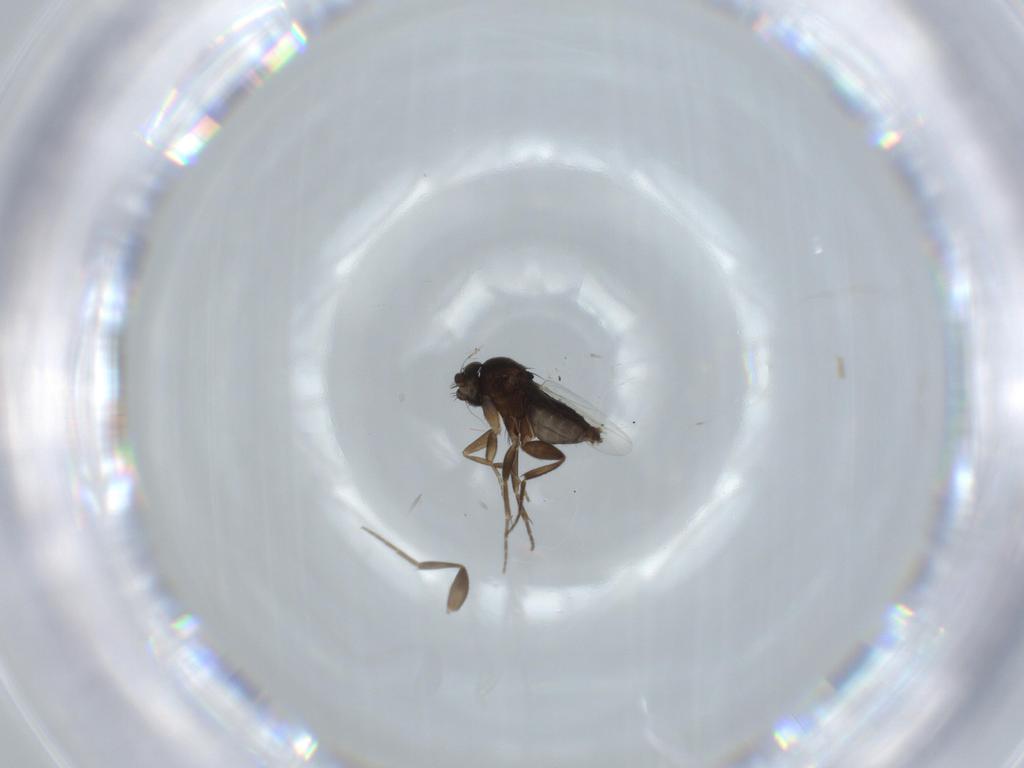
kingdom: Animalia
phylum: Arthropoda
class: Insecta
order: Diptera
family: Phoridae
